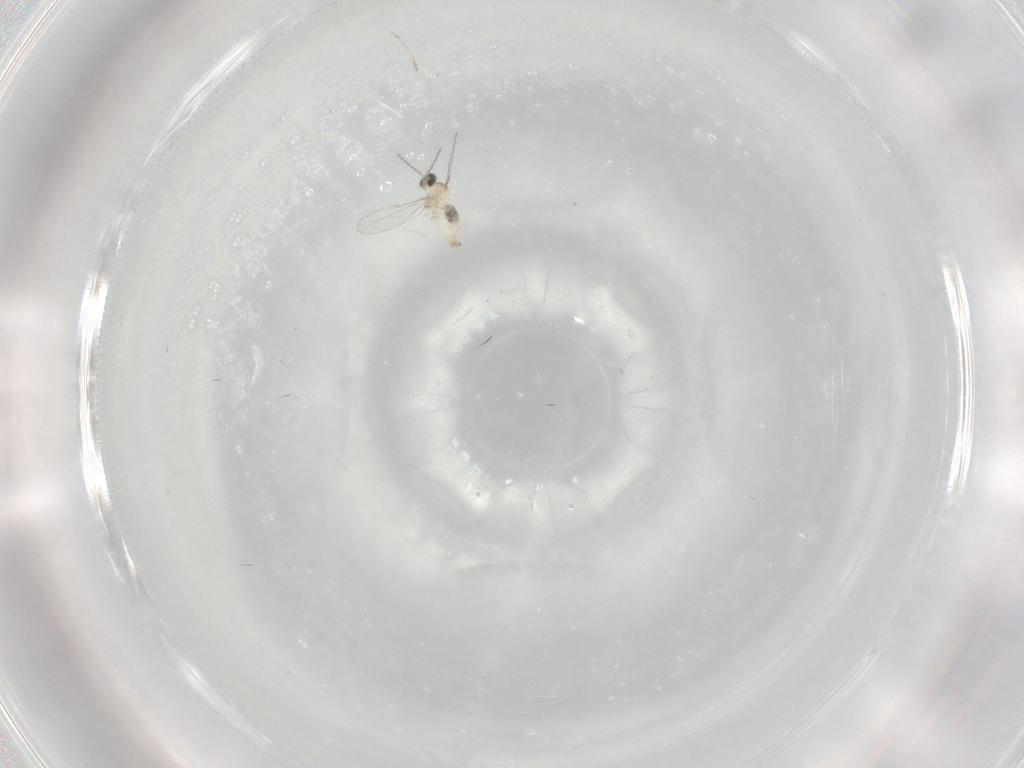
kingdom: Animalia
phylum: Arthropoda
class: Insecta
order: Diptera
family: Cecidomyiidae
